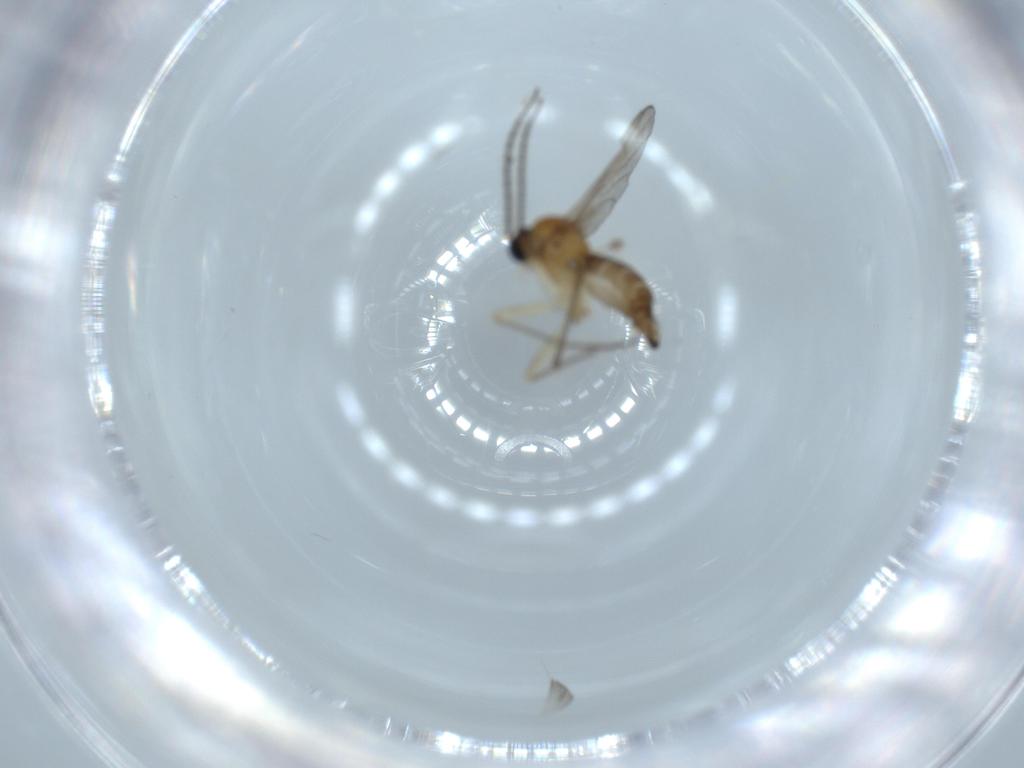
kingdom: Animalia
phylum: Arthropoda
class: Insecta
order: Diptera
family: Sciaridae
